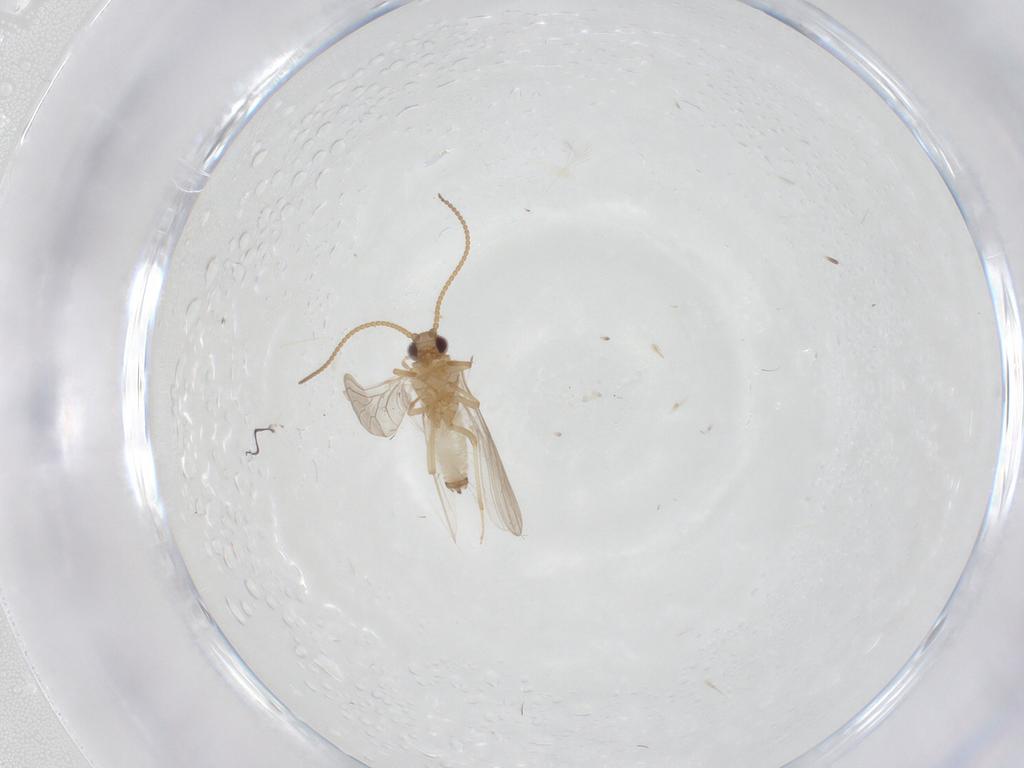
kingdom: Animalia
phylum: Arthropoda
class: Insecta
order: Neuroptera
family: Coniopterygidae
